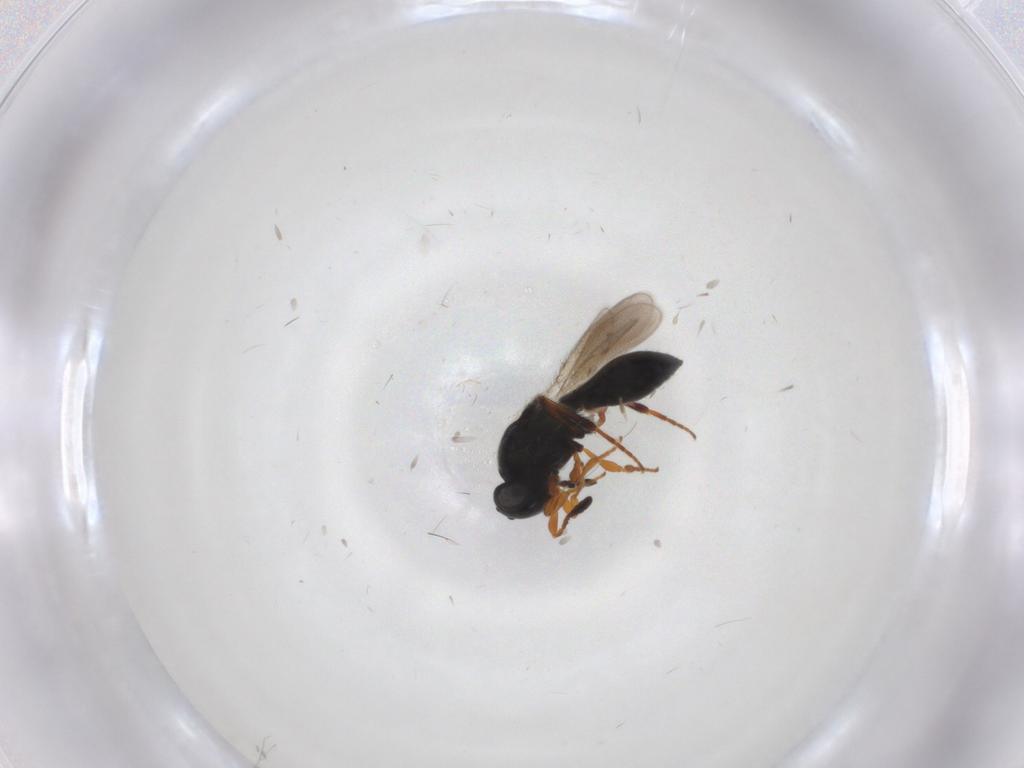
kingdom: Animalia
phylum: Arthropoda
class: Insecta
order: Hymenoptera
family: Platygastridae
